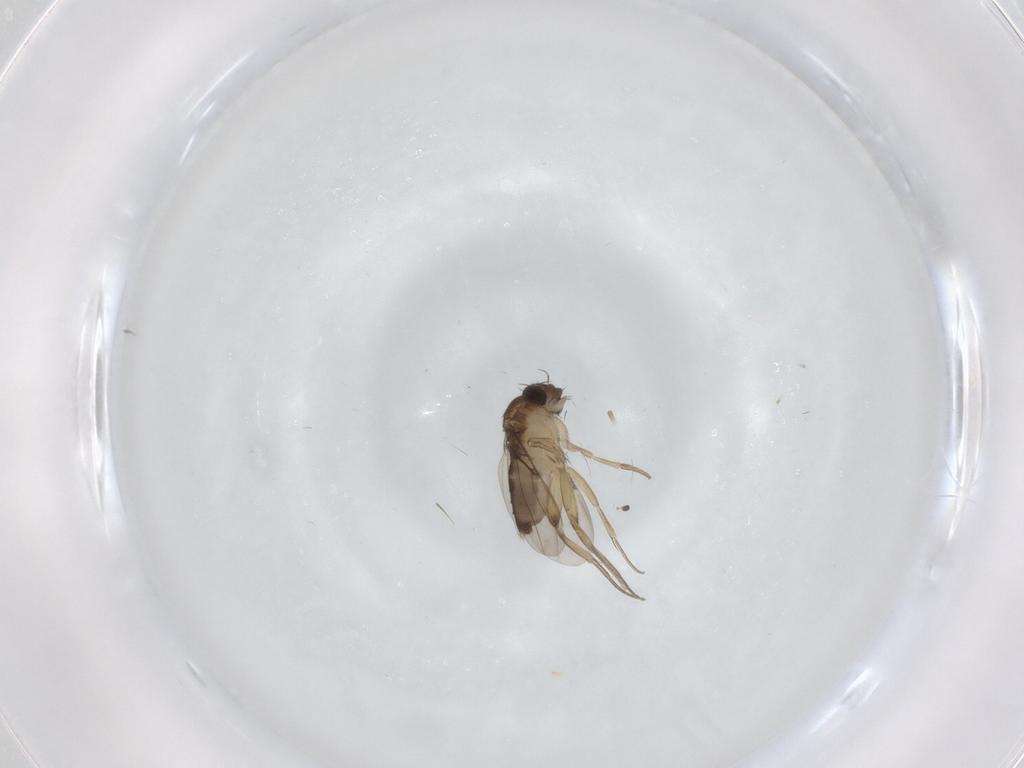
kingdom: Animalia
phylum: Arthropoda
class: Insecta
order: Diptera
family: Phoridae
